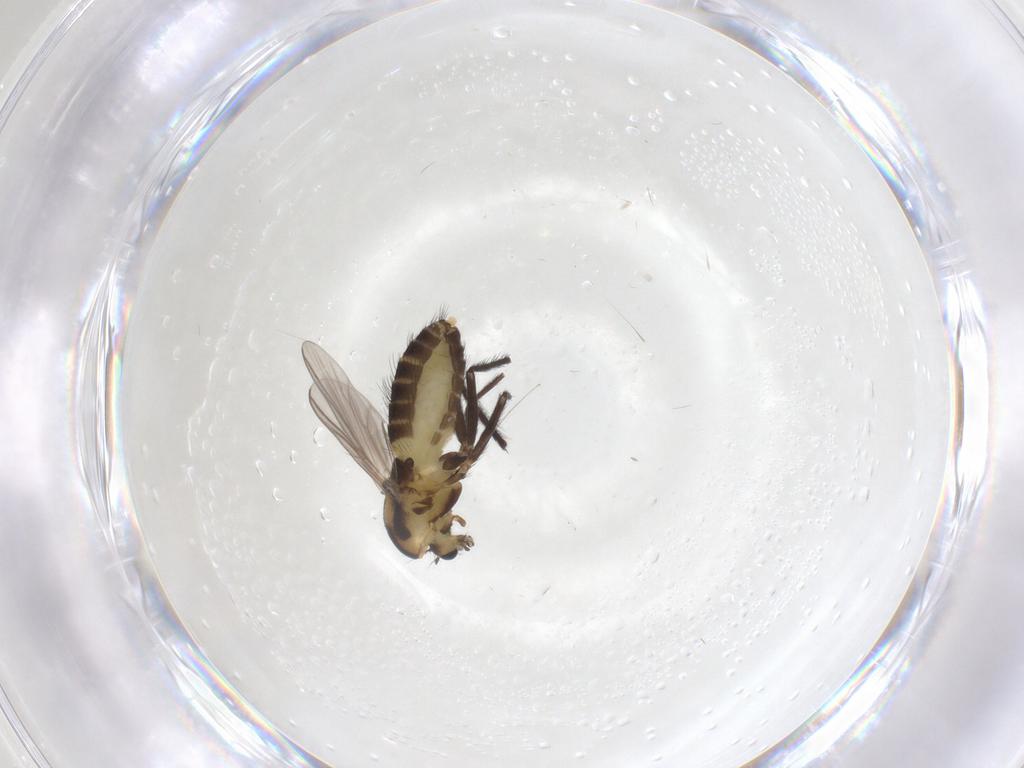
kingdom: Animalia
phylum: Arthropoda
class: Insecta
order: Diptera
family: Chironomidae
